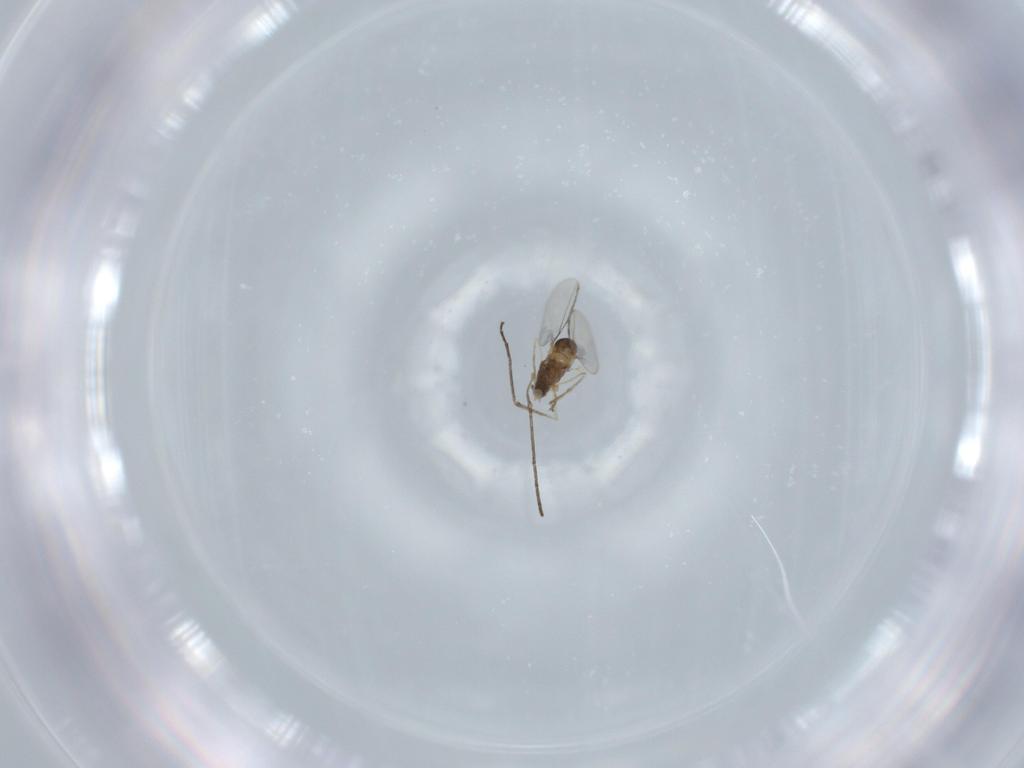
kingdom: Animalia
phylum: Arthropoda
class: Insecta
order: Diptera
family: Cecidomyiidae
